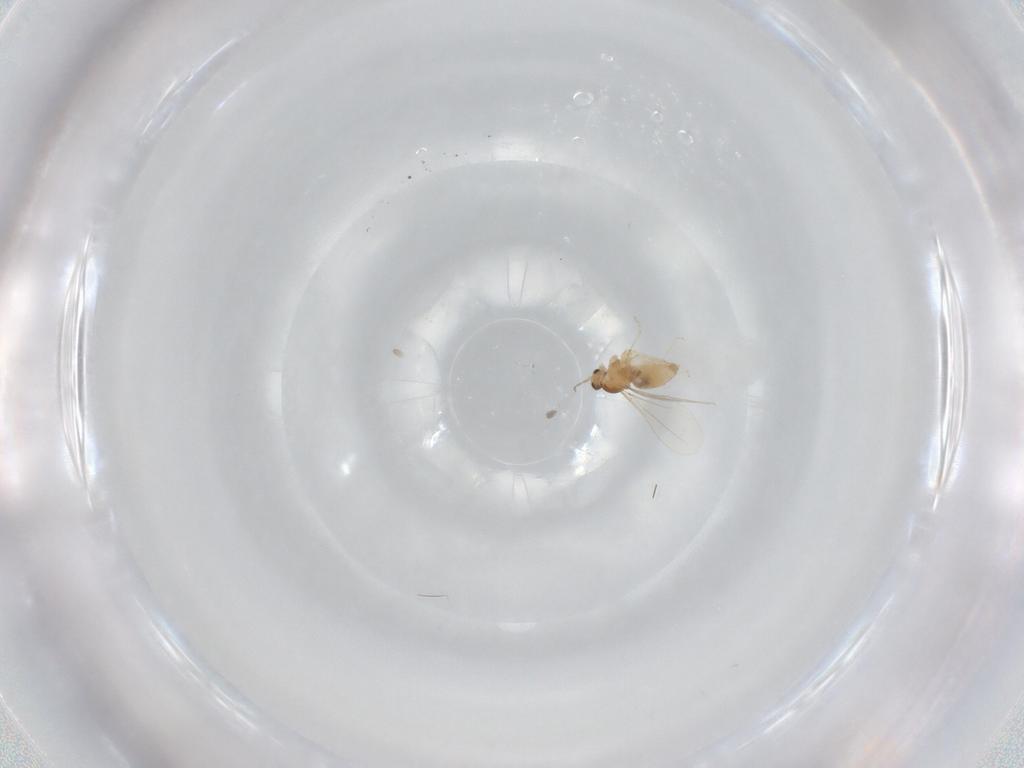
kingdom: Animalia
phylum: Arthropoda
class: Insecta
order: Diptera
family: Cecidomyiidae
